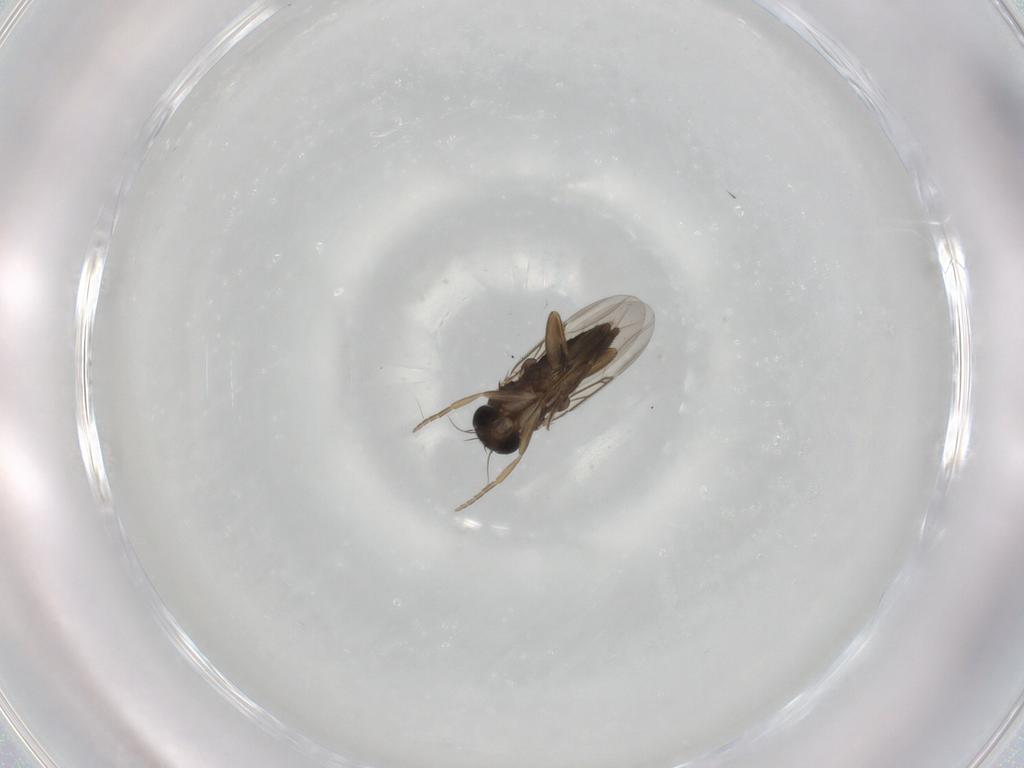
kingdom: Animalia
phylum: Arthropoda
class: Insecta
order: Diptera
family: Phoridae
